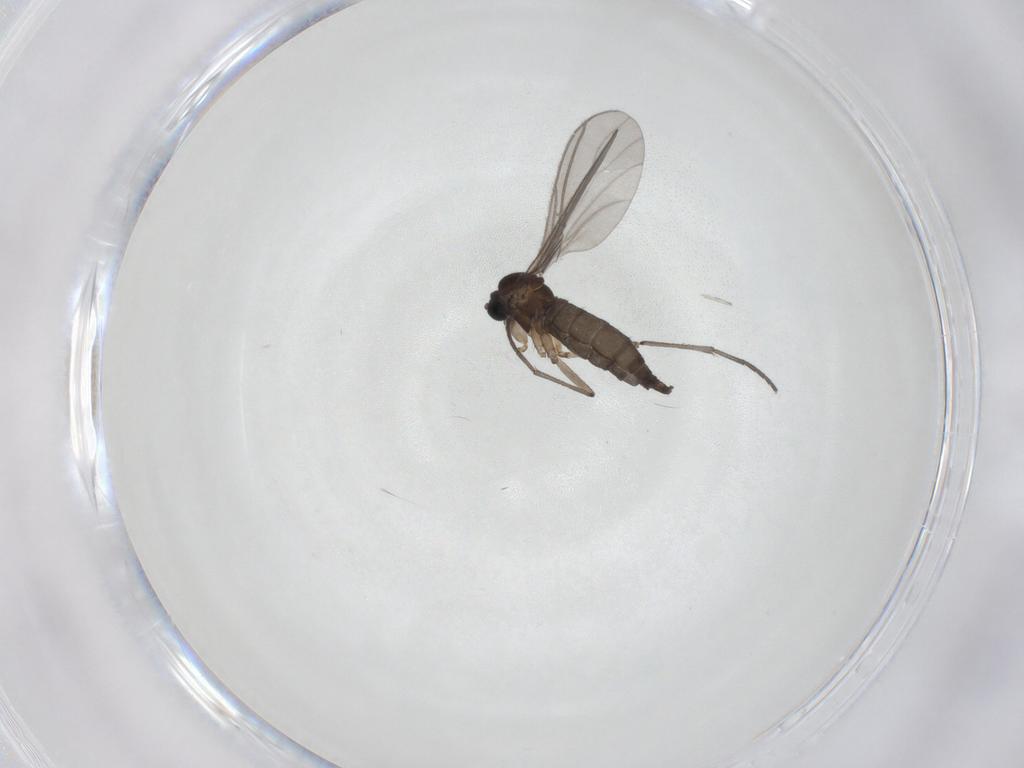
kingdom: Animalia
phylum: Arthropoda
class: Insecta
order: Diptera
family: Sciaridae
